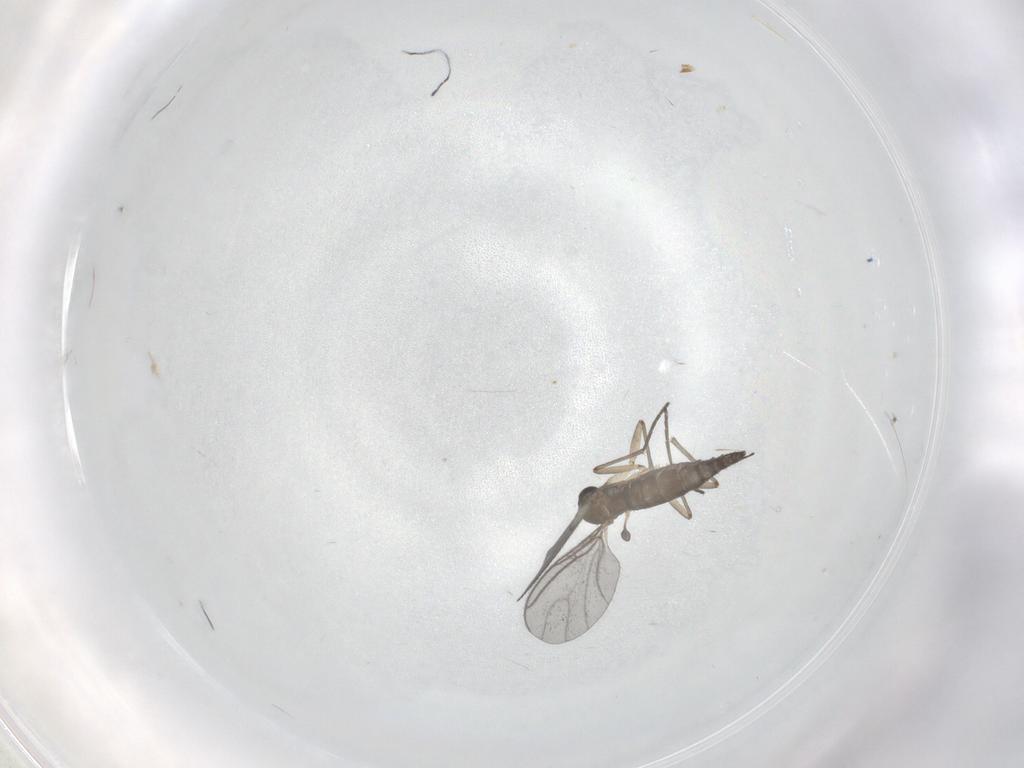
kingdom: Animalia
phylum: Arthropoda
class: Insecta
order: Diptera
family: Sciaridae
